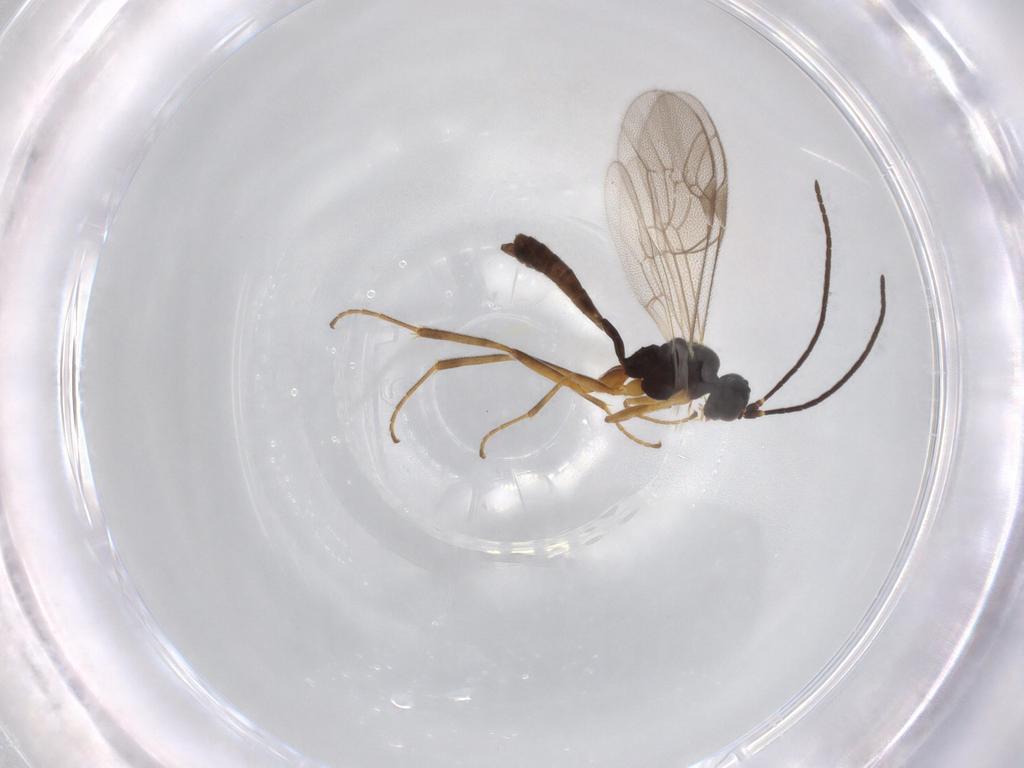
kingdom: Animalia
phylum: Arthropoda
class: Insecta
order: Hymenoptera
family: Ichneumonidae
